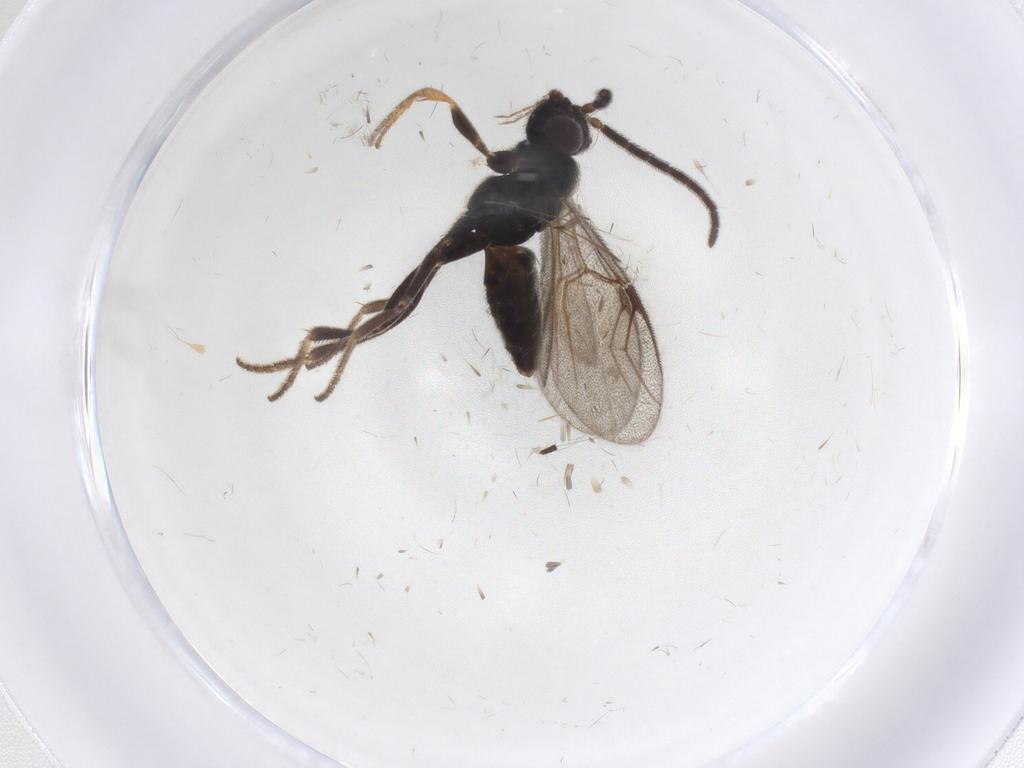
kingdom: Animalia
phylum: Arthropoda
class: Insecta
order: Hymenoptera
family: Dryinidae
